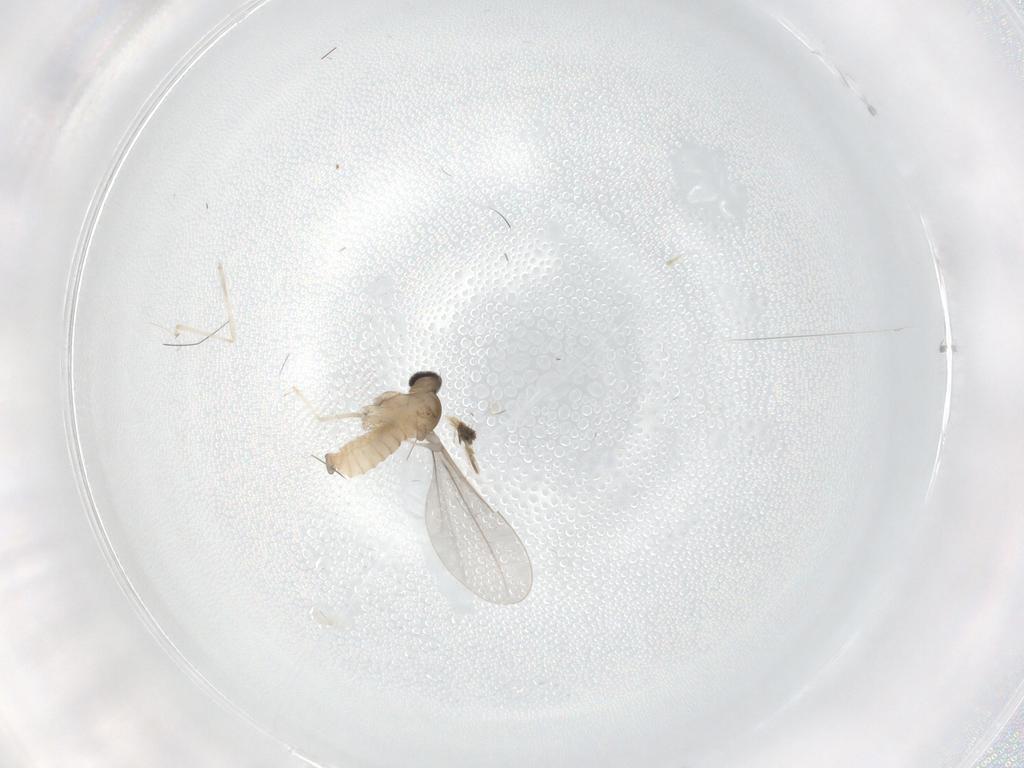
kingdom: Animalia
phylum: Arthropoda
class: Insecta
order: Diptera
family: Cecidomyiidae
